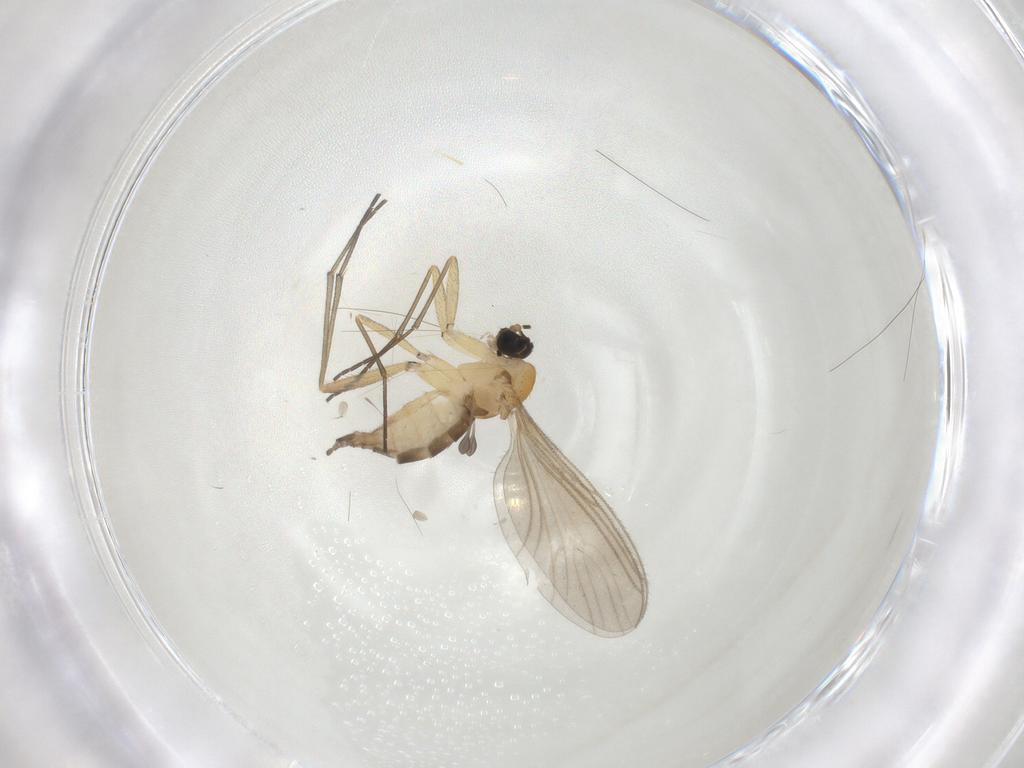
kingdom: Animalia
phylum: Arthropoda
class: Insecta
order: Diptera
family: Sciaridae
